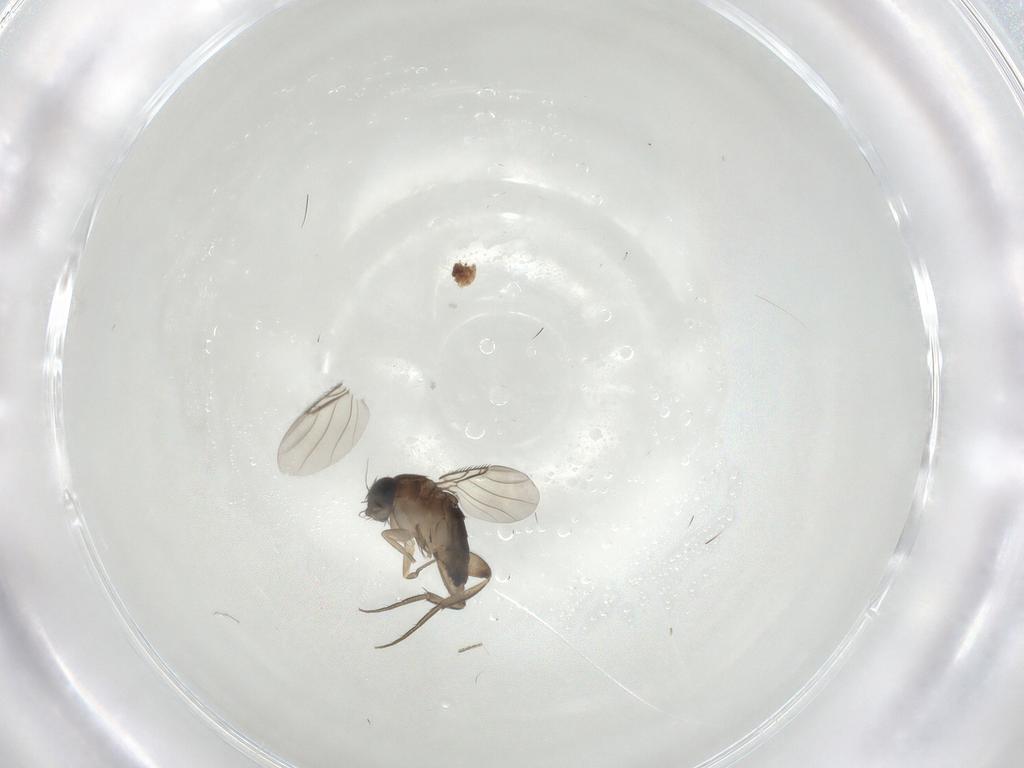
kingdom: Animalia
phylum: Arthropoda
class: Insecta
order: Diptera
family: Phoridae
